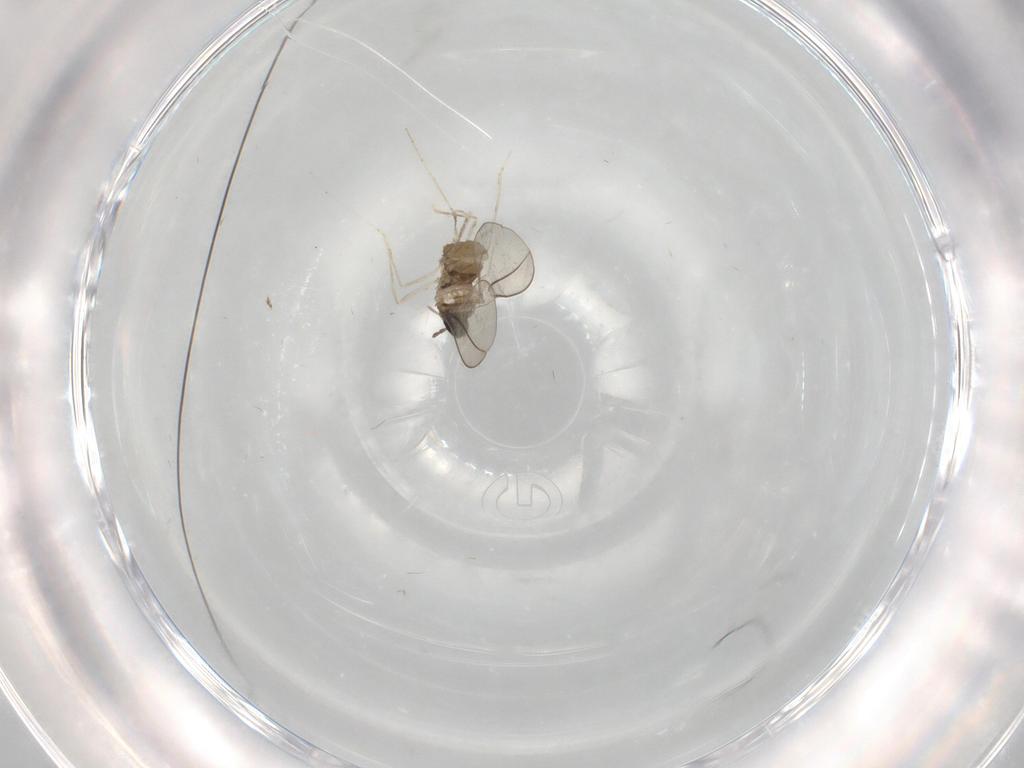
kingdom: Animalia
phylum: Arthropoda
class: Insecta
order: Diptera
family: Cecidomyiidae
